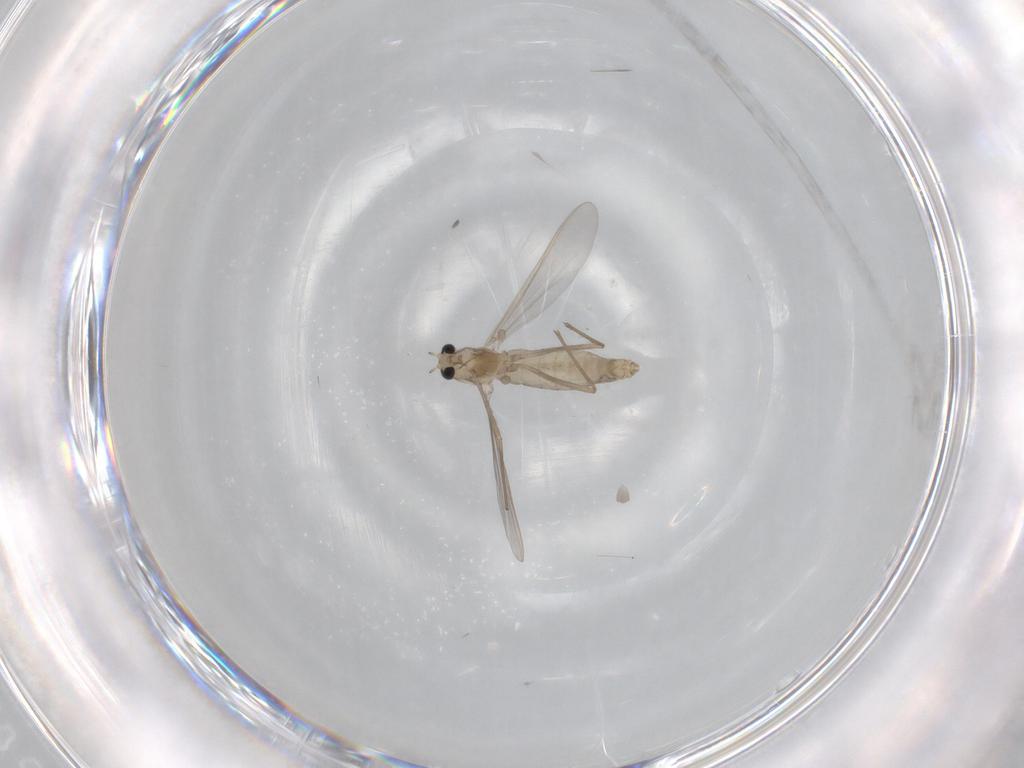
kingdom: Animalia
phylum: Arthropoda
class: Insecta
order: Diptera
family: Chironomidae
